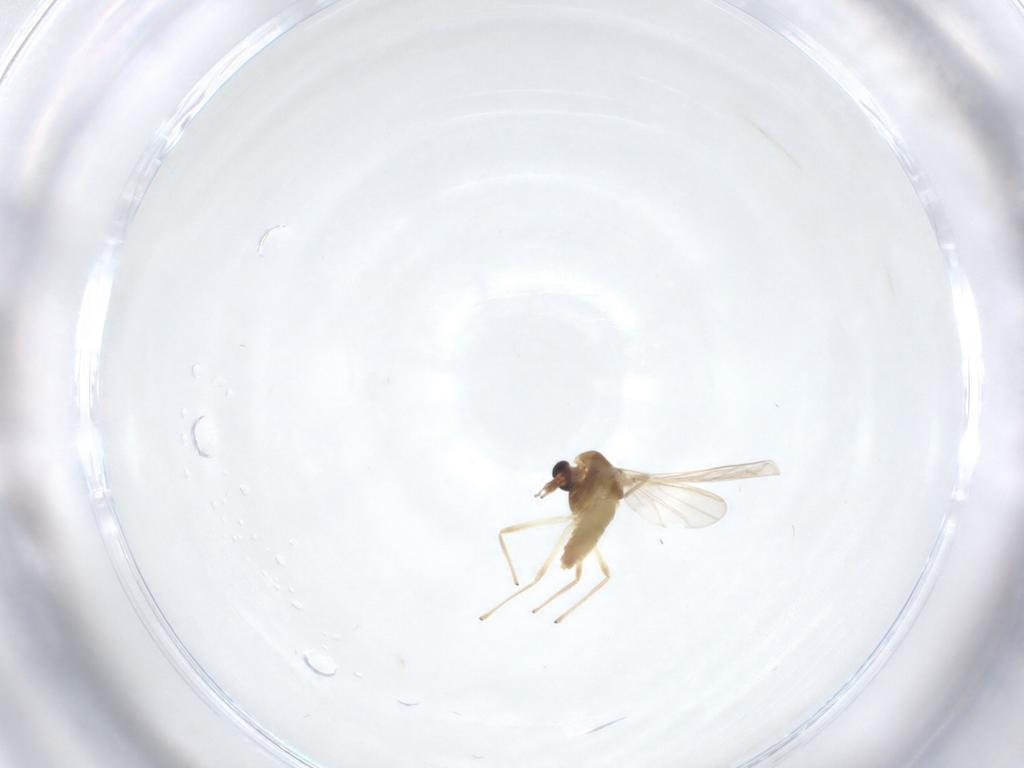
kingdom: Animalia
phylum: Arthropoda
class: Insecta
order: Diptera
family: Chironomidae
